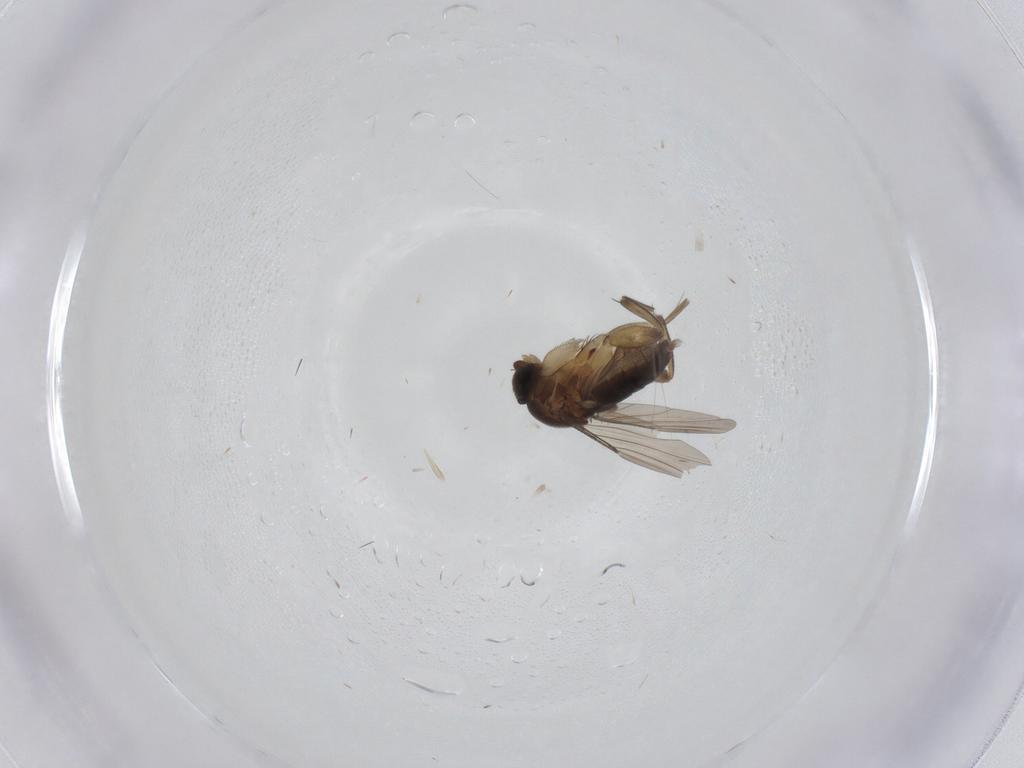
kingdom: Animalia
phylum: Arthropoda
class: Insecta
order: Diptera
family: Phoridae
